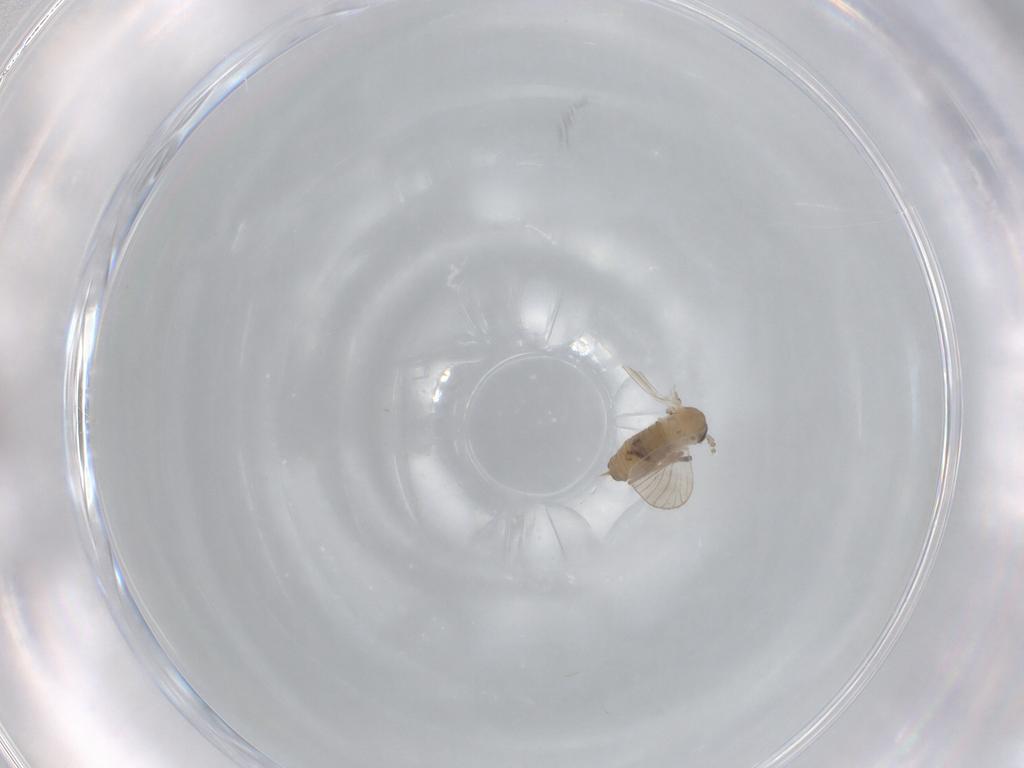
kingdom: Animalia
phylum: Arthropoda
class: Insecta
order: Diptera
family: Psychodidae
